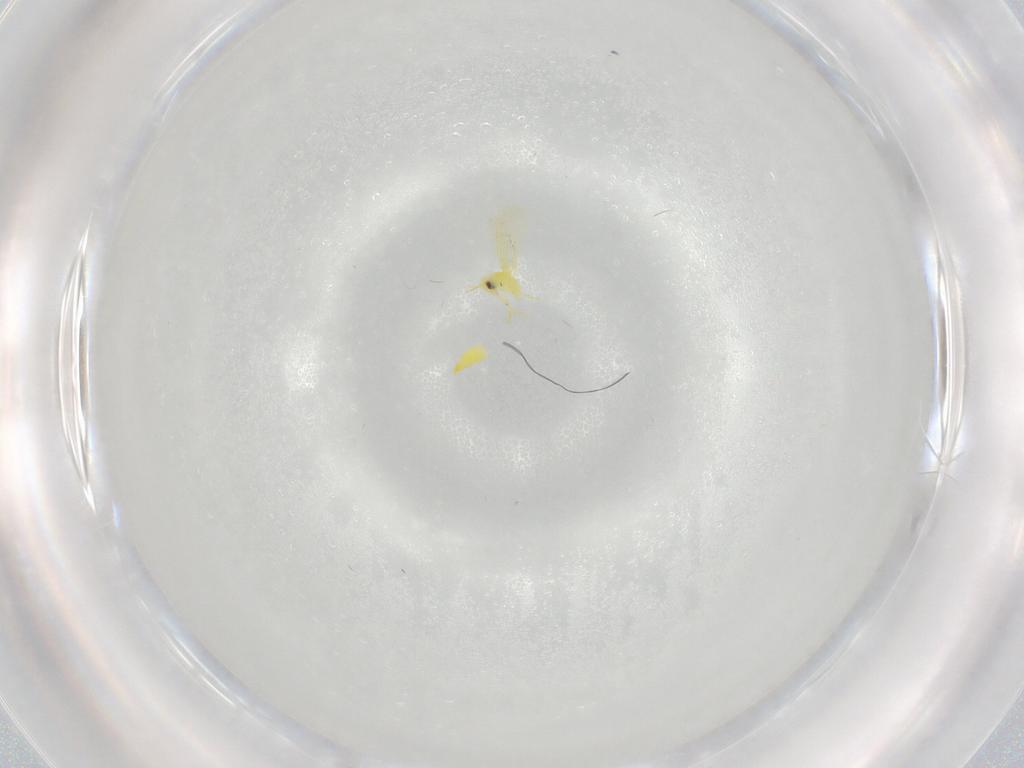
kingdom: Animalia
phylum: Arthropoda
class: Insecta
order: Hemiptera
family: Aleyrodidae
